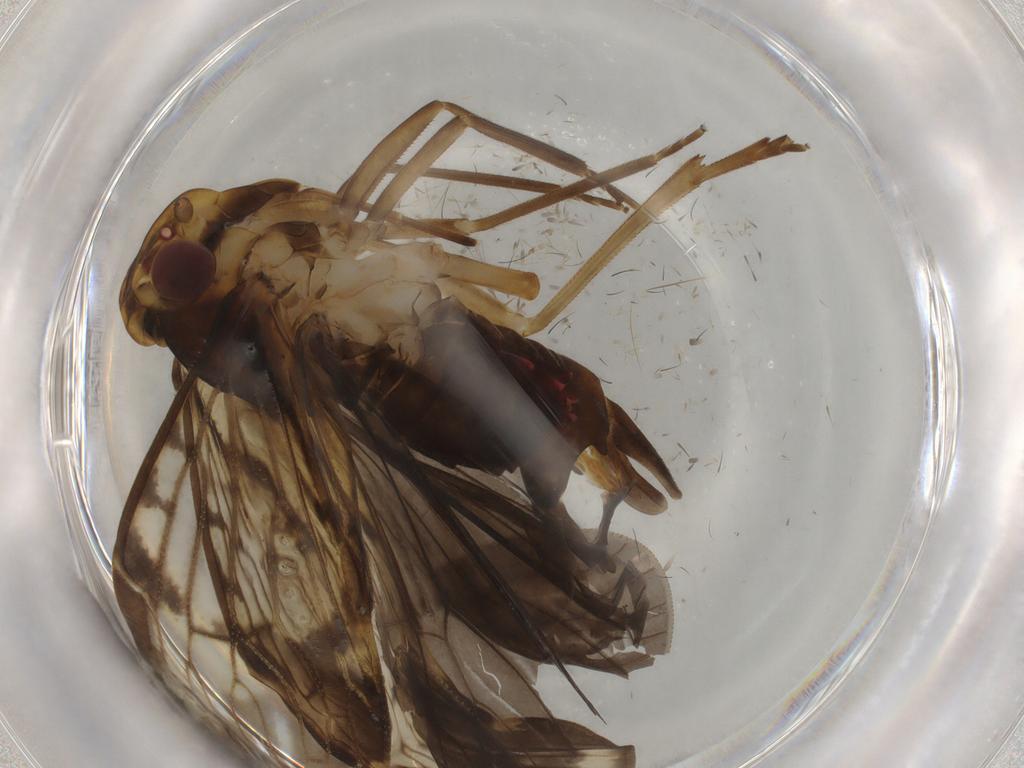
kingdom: Animalia
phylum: Arthropoda
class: Insecta
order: Hemiptera
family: Cixiidae
